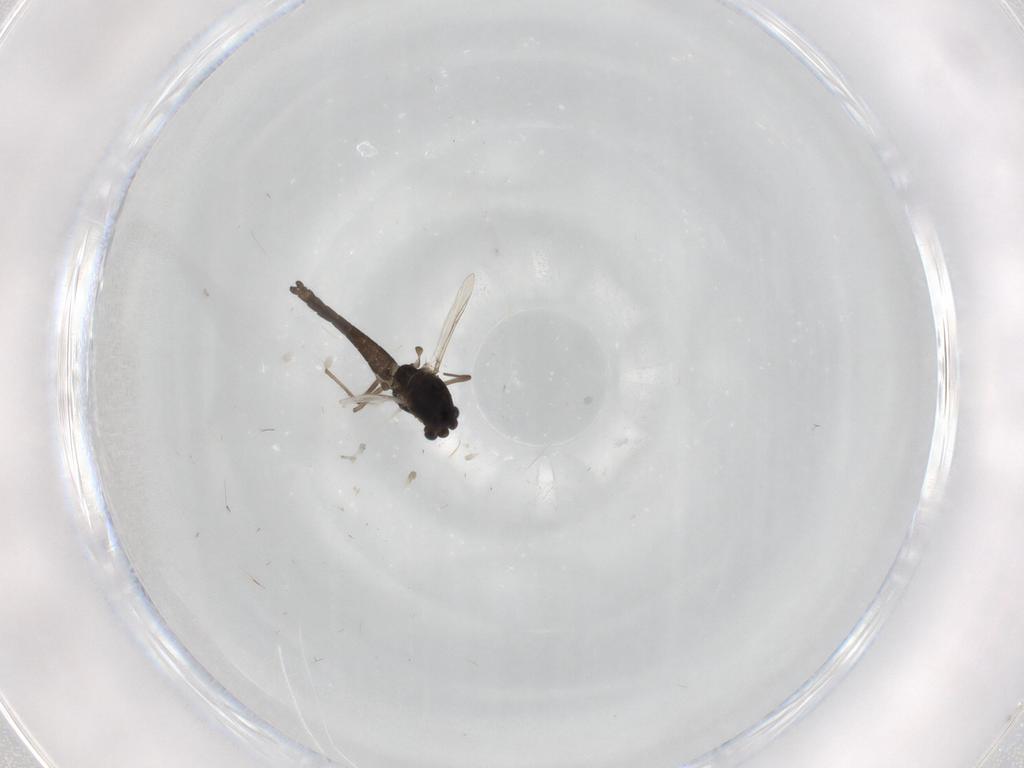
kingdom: Animalia
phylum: Arthropoda
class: Insecta
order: Diptera
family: Chironomidae
